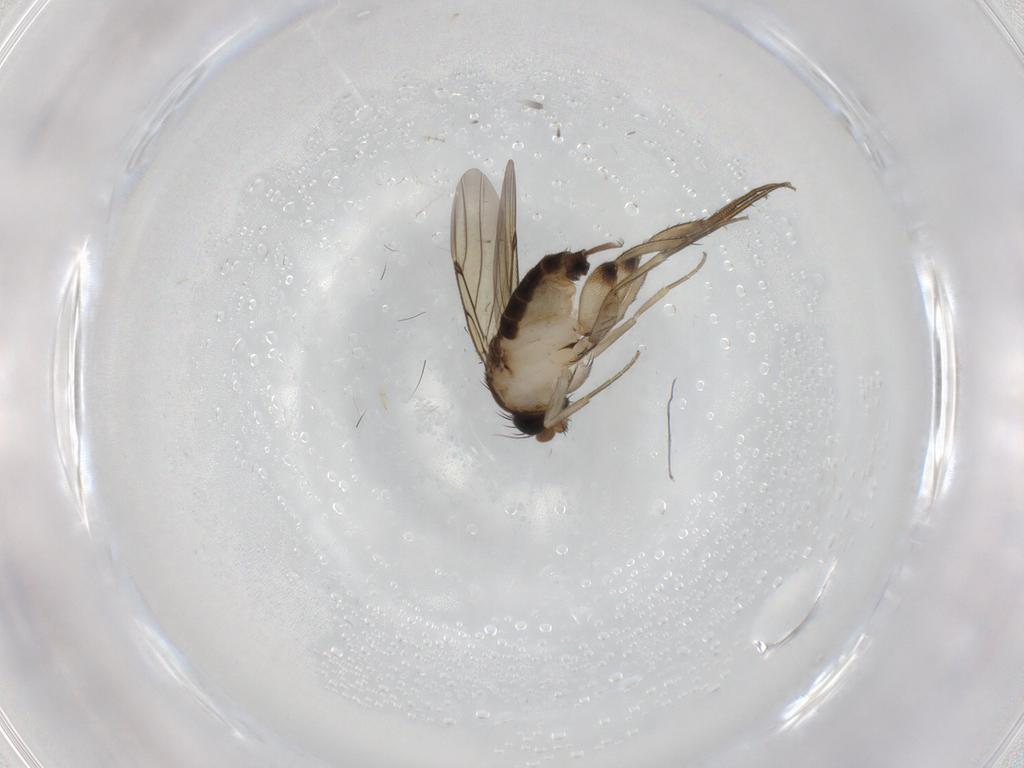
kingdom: Animalia
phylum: Arthropoda
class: Insecta
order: Diptera
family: Phoridae
